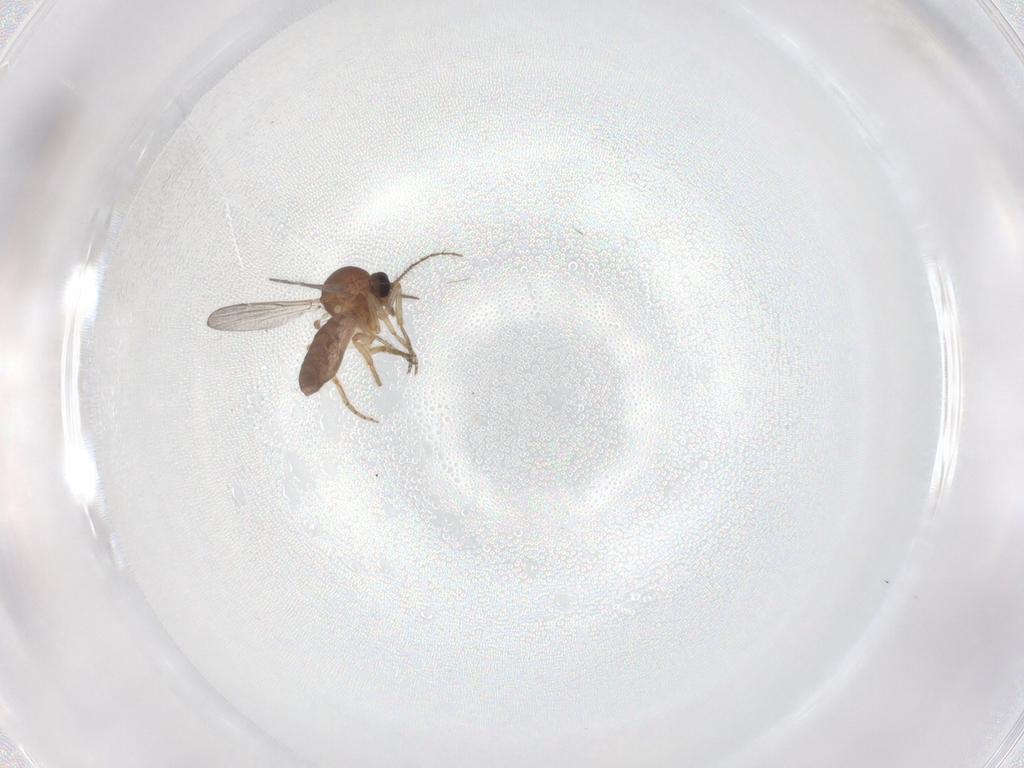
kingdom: Animalia
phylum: Arthropoda
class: Insecta
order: Diptera
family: Ceratopogonidae
